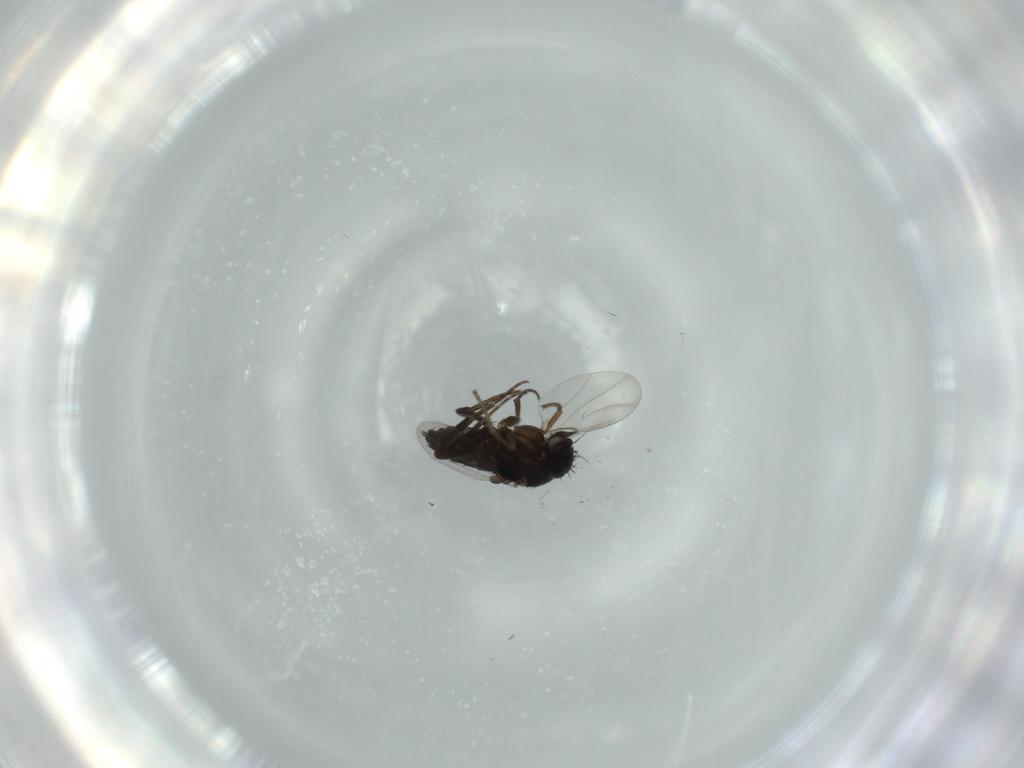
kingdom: Animalia
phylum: Arthropoda
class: Insecta
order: Diptera
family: Phoridae
